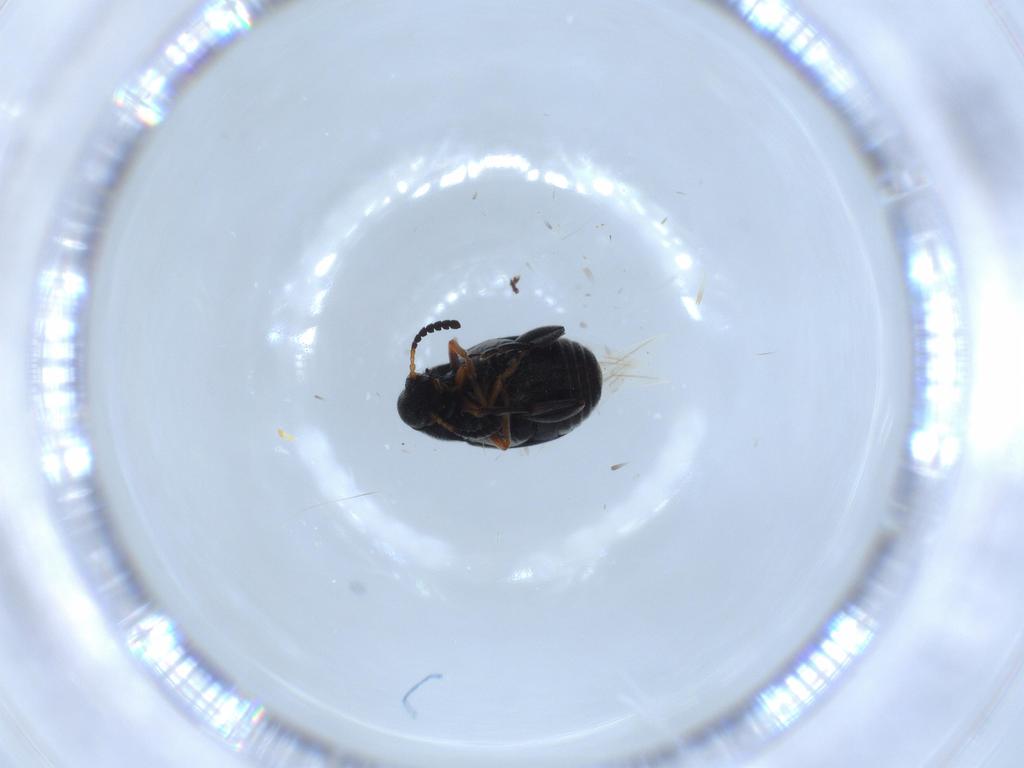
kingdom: Animalia
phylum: Arthropoda
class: Insecta
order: Coleoptera
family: Chrysomelidae
